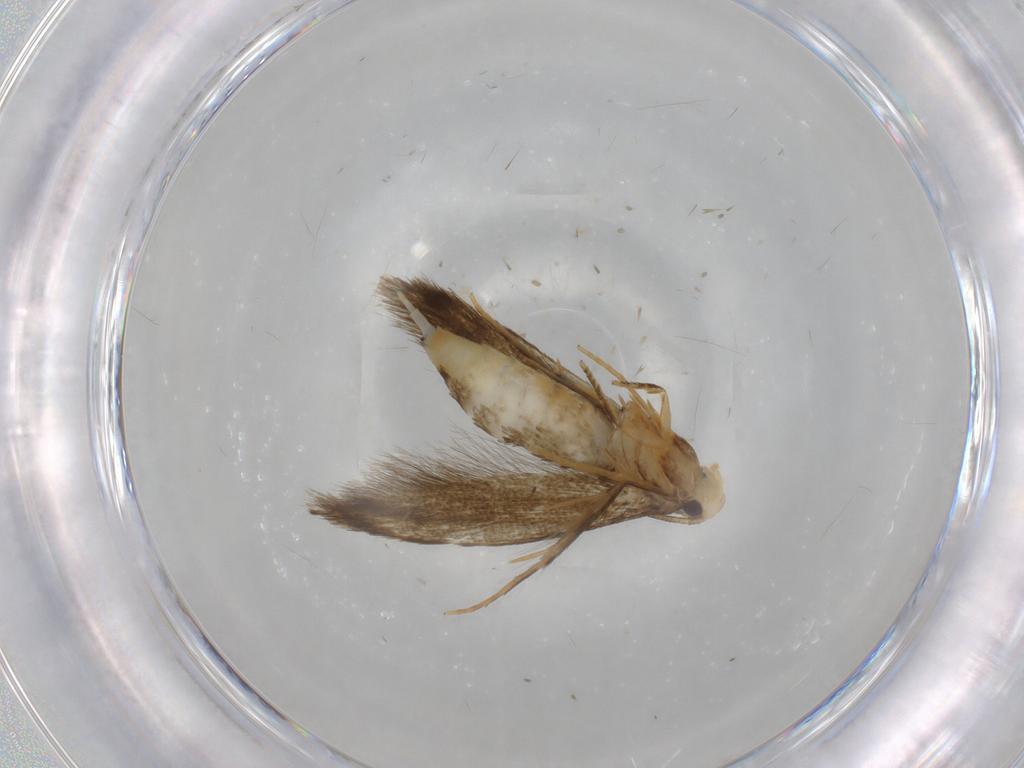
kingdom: Animalia
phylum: Arthropoda
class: Insecta
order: Lepidoptera
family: Tineidae
